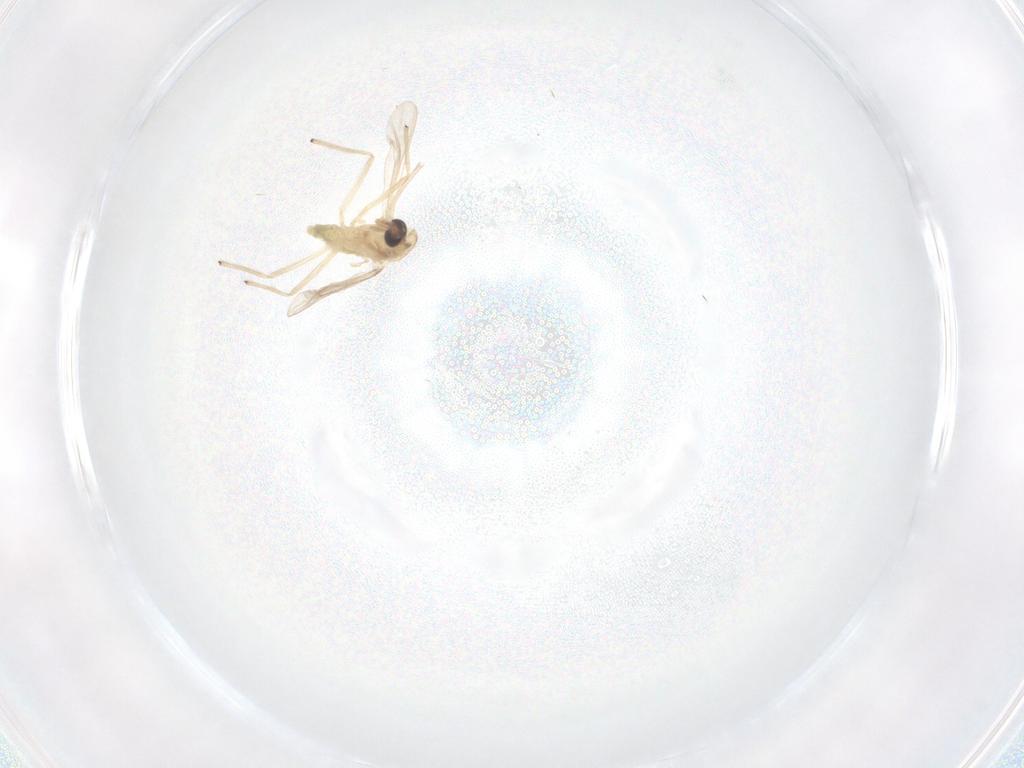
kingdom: Animalia
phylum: Arthropoda
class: Insecta
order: Diptera
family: Chironomidae
